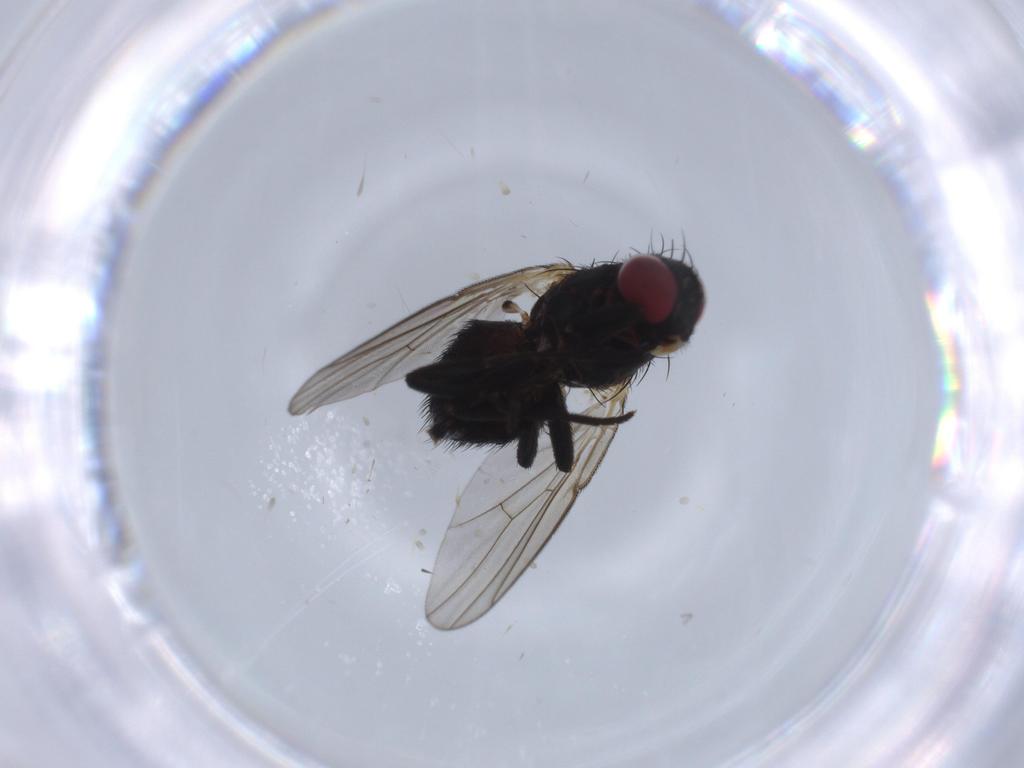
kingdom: Animalia
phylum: Arthropoda
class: Insecta
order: Diptera
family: Agromyzidae
